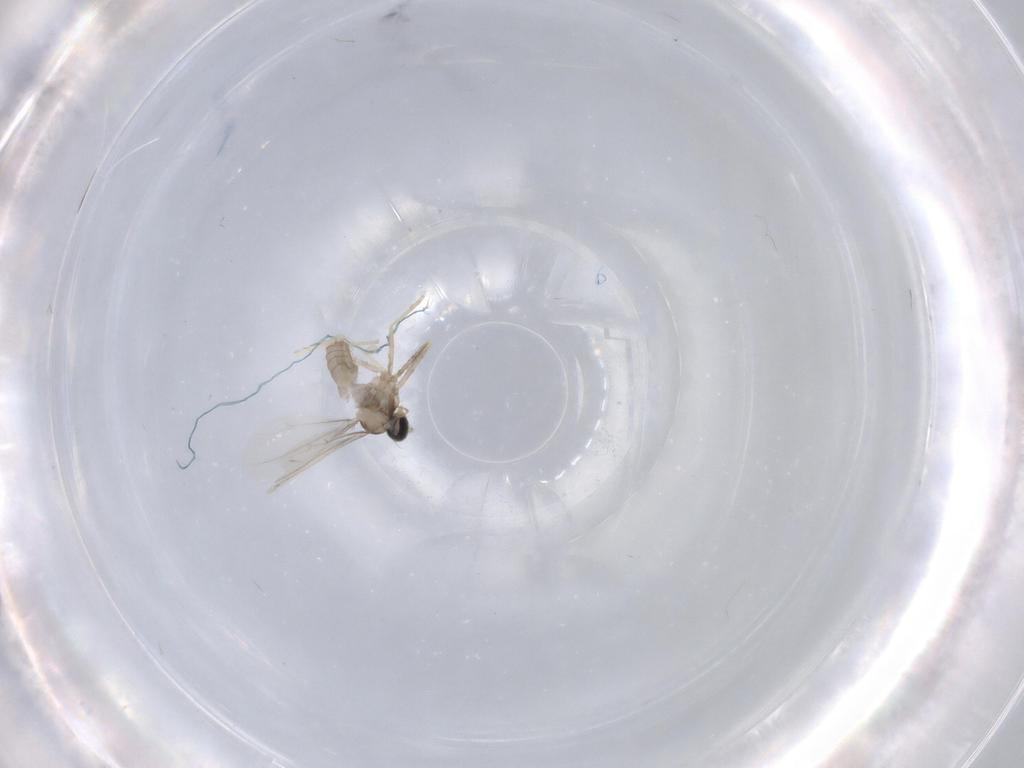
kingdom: Animalia
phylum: Arthropoda
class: Insecta
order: Diptera
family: Cecidomyiidae
